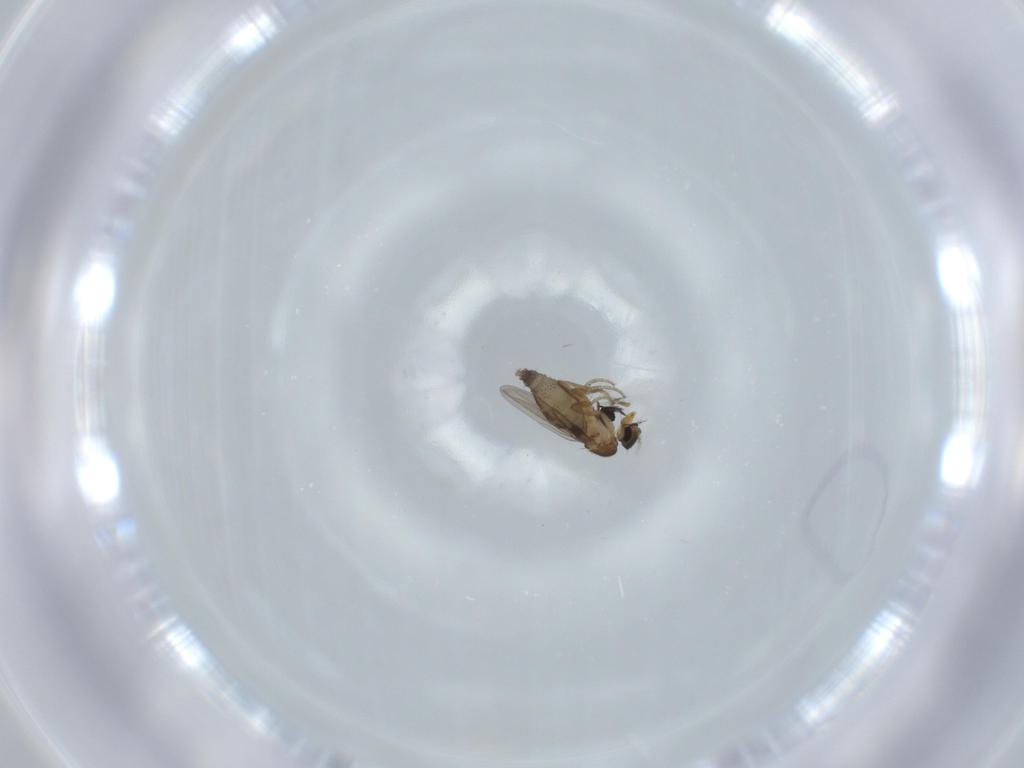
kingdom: Animalia
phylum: Arthropoda
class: Insecta
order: Diptera
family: Phoridae
